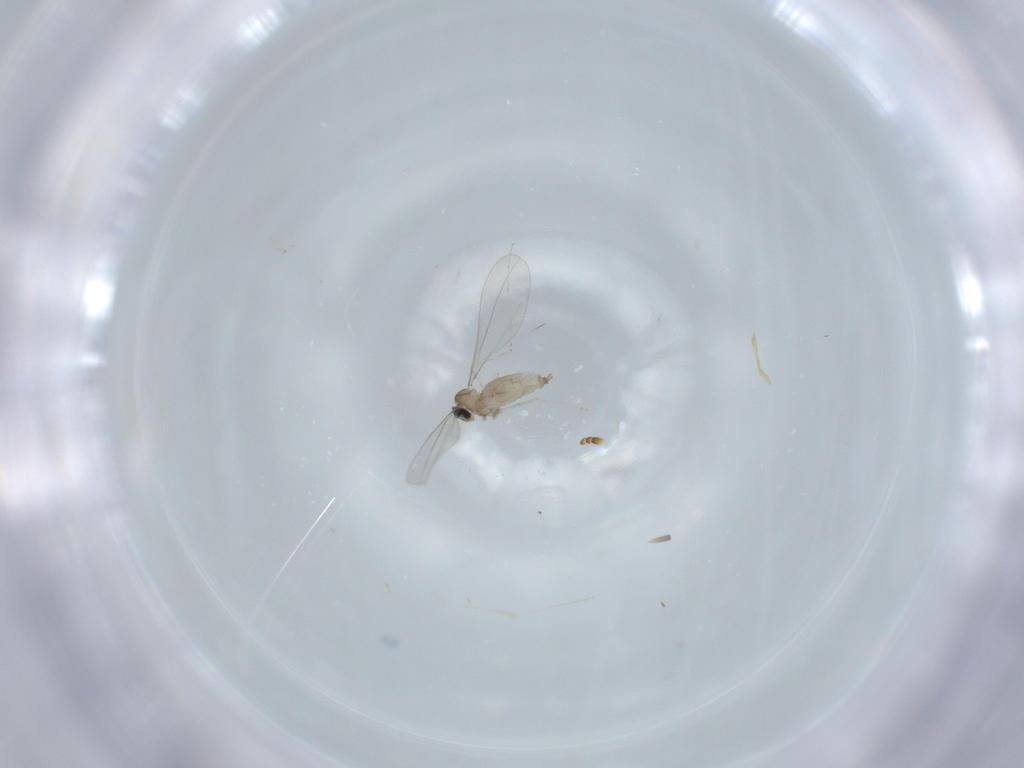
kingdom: Animalia
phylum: Arthropoda
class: Insecta
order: Diptera
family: Cecidomyiidae
